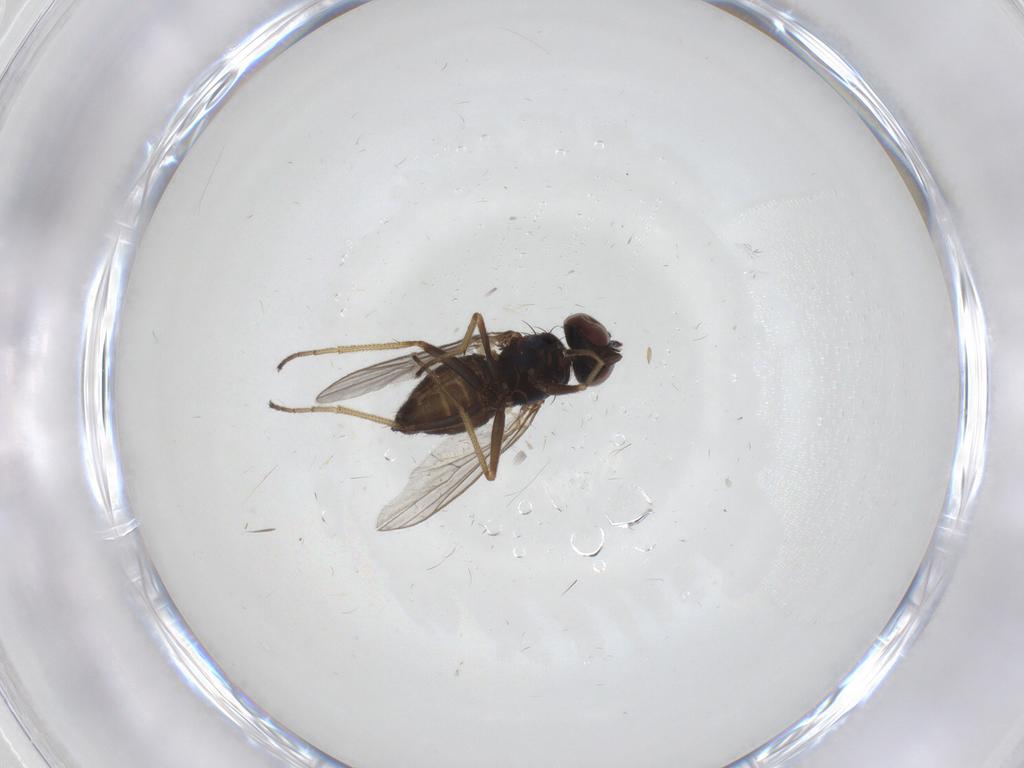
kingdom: Animalia
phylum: Arthropoda
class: Insecta
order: Diptera
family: Dolichopodidae
